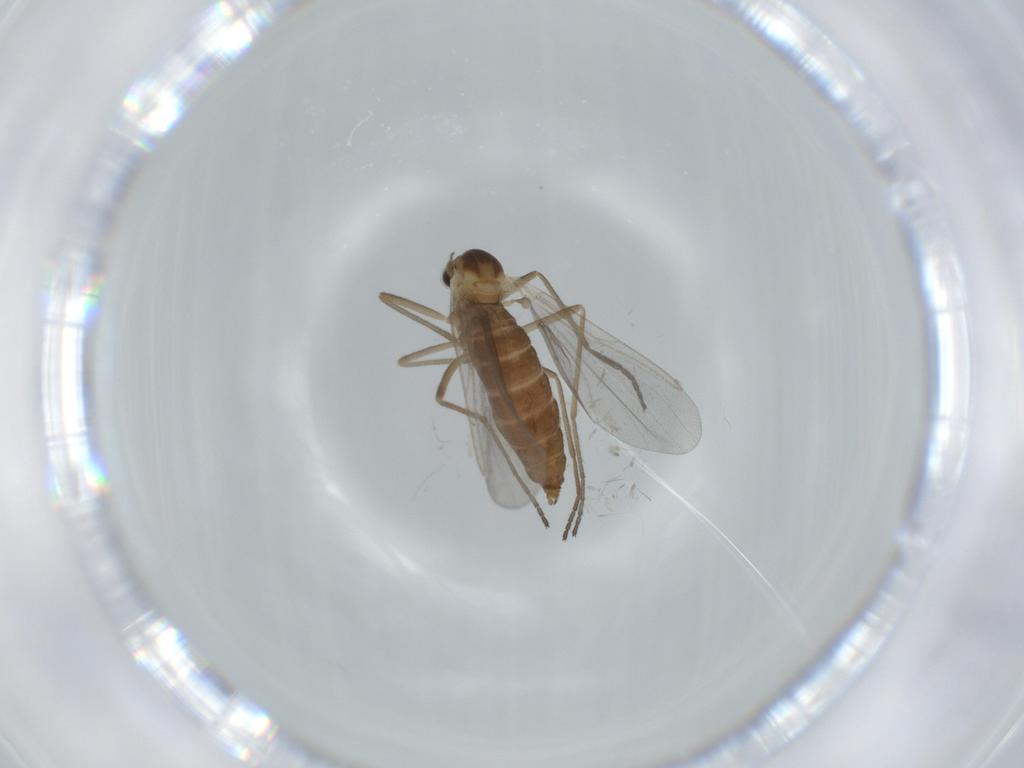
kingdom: Animalia
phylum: Arthropoda
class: Insecta
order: Diptera
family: Cecidomyiidae
